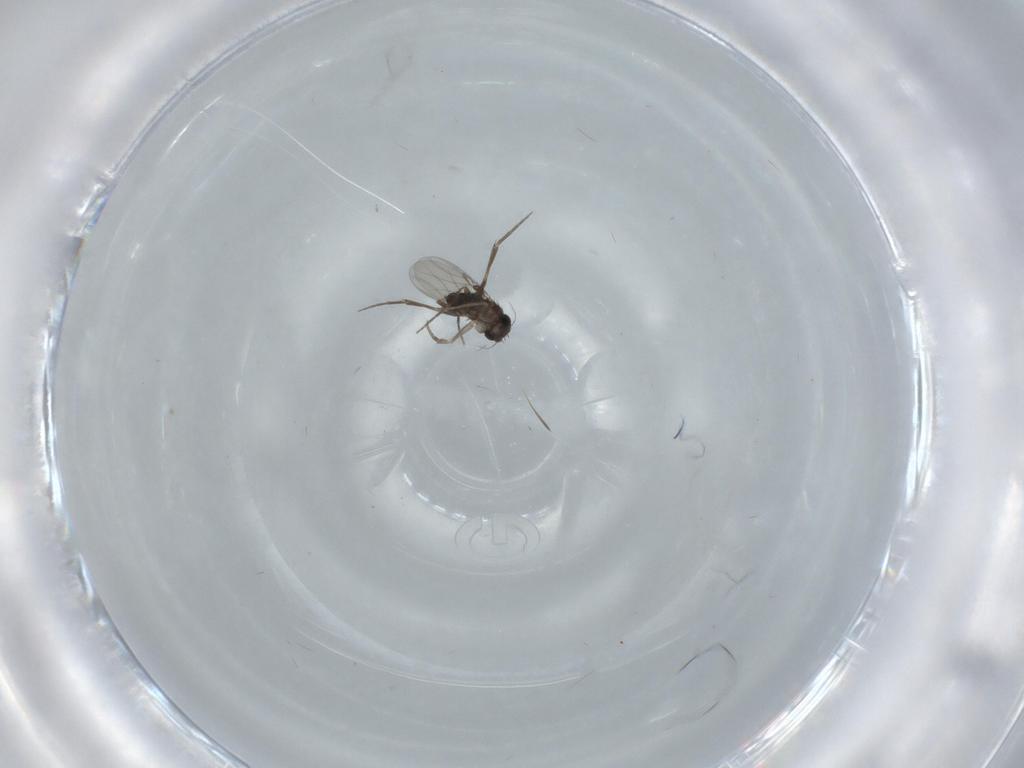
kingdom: Animalia
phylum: Arthropoda
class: Insecta
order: Diptera
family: Phoridae
